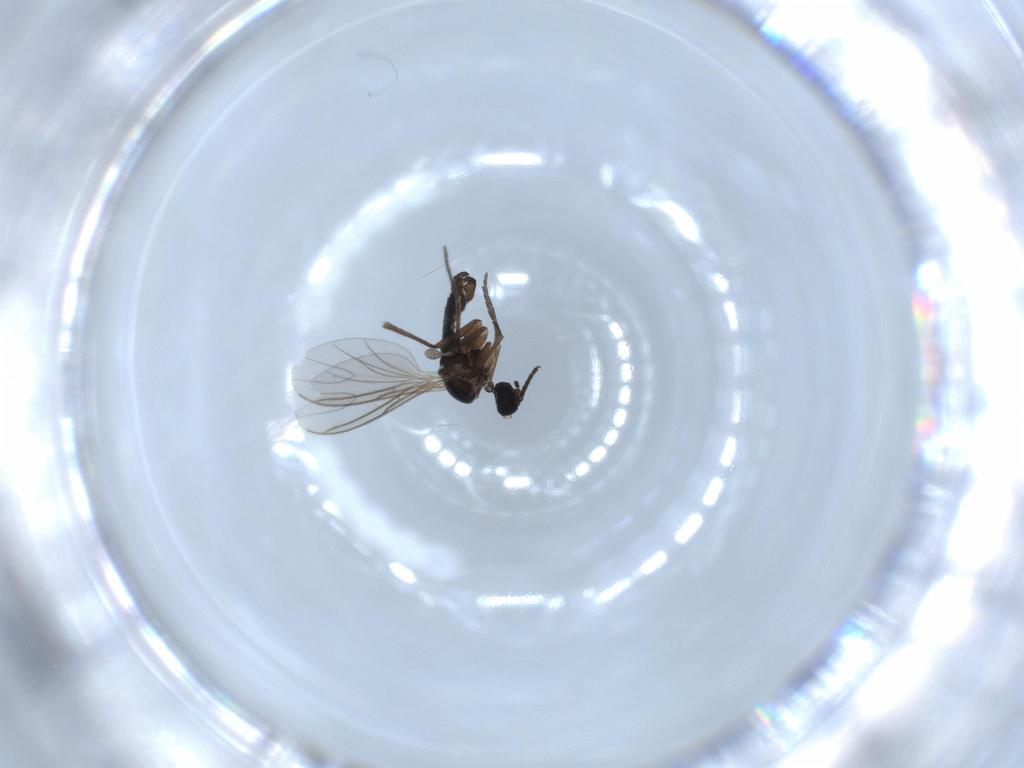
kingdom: Animalia
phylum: Arthropoda
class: Insecta
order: Diptera
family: Sciaridae
